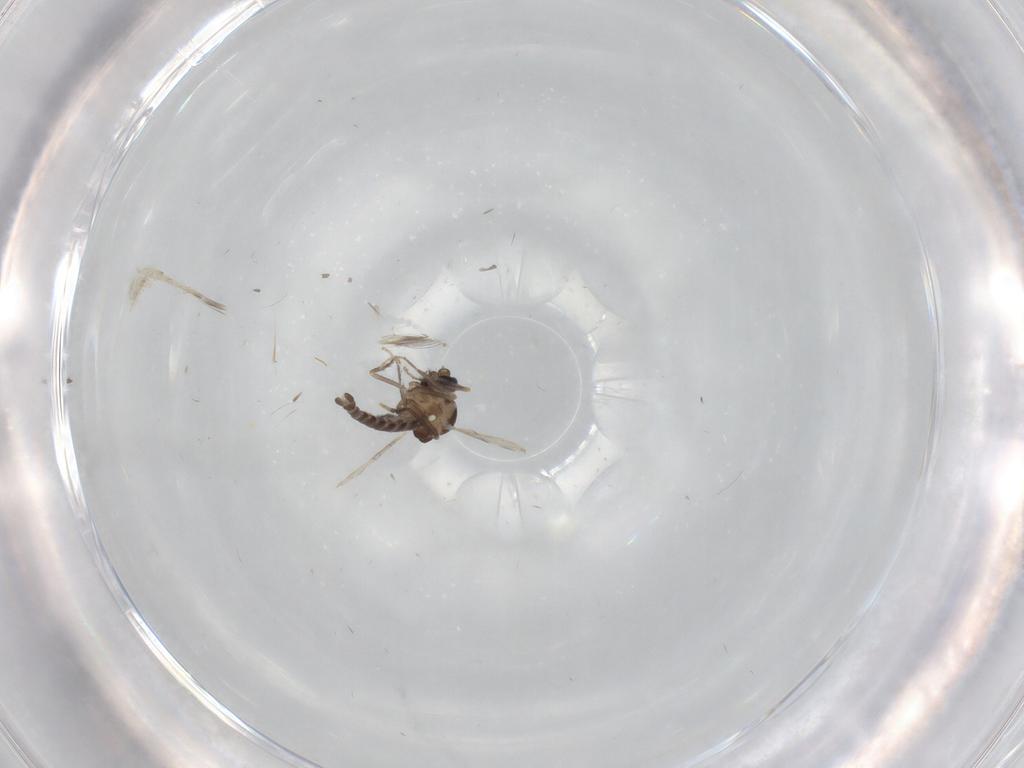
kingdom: Animalia
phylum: Arthropoda
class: Insecta
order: Diptera
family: Ceratopogonidae
